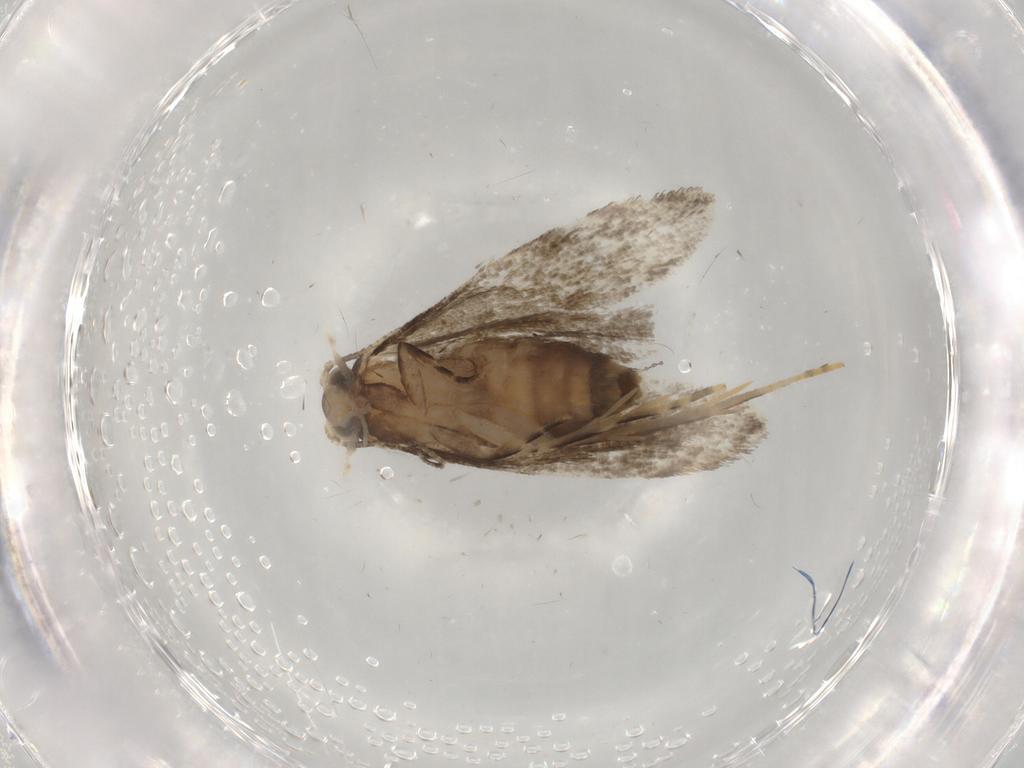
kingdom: Animalia
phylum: Arthropoda
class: Insecta
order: Lepidoptera
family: Tineidae
